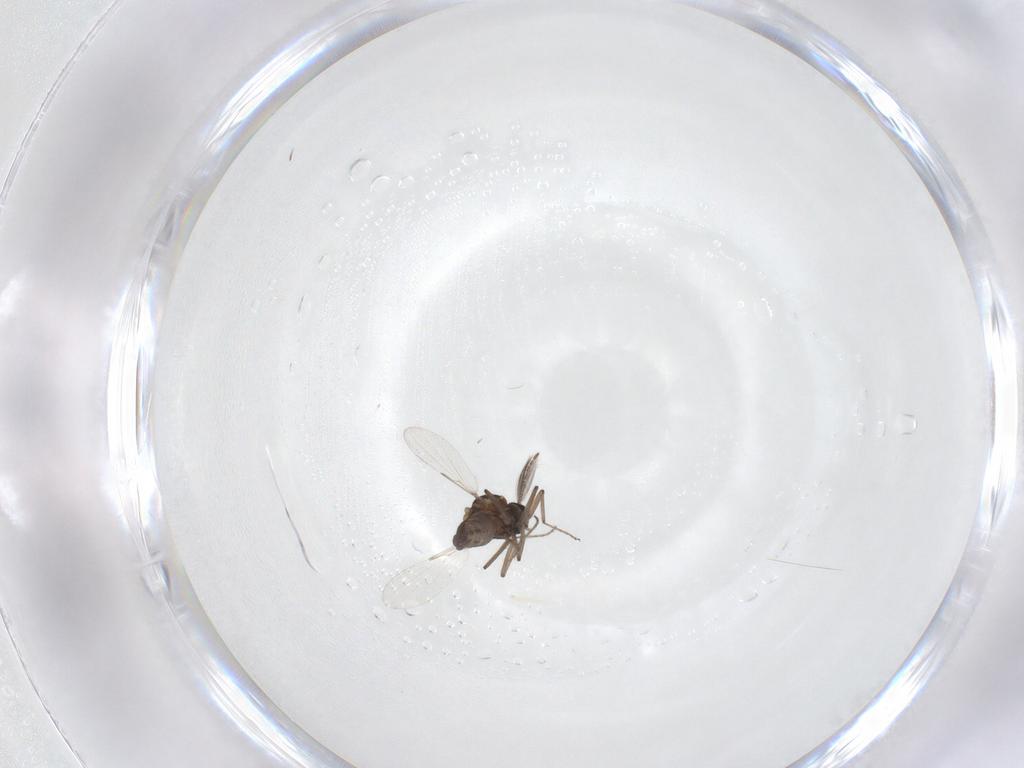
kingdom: Animalia
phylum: Arthropoda
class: Insecta
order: Diptera
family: Ceratopogonidae
